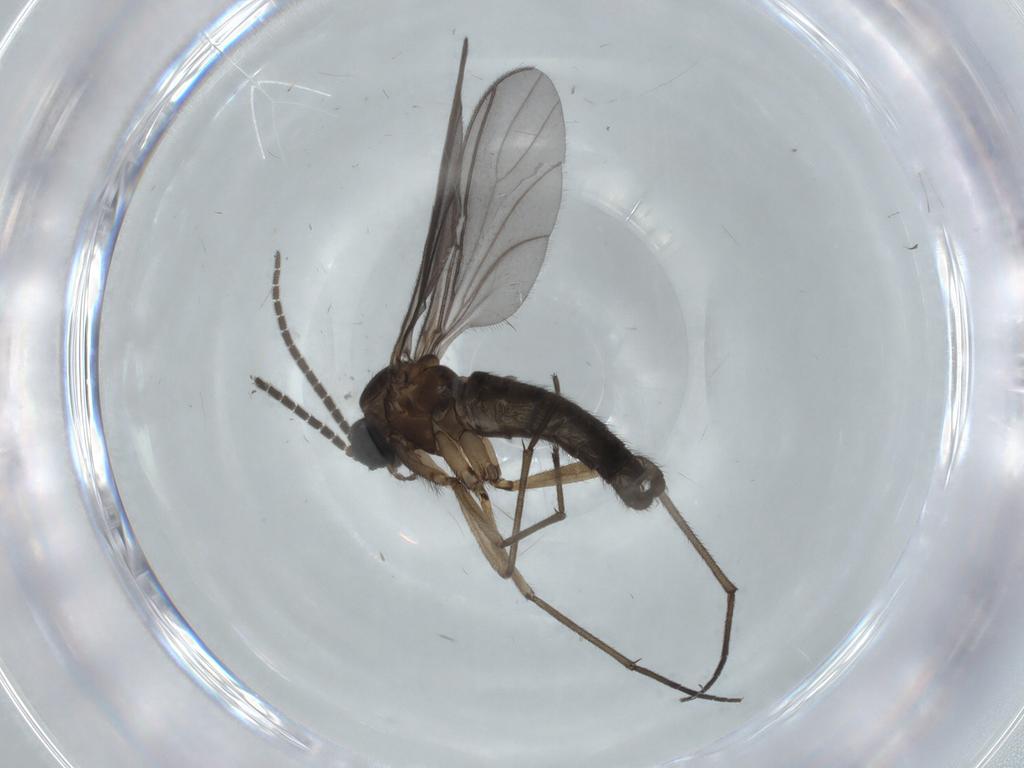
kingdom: Animalia
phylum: Arthropoda
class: Insecta
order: Diptera
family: Sciaridae
